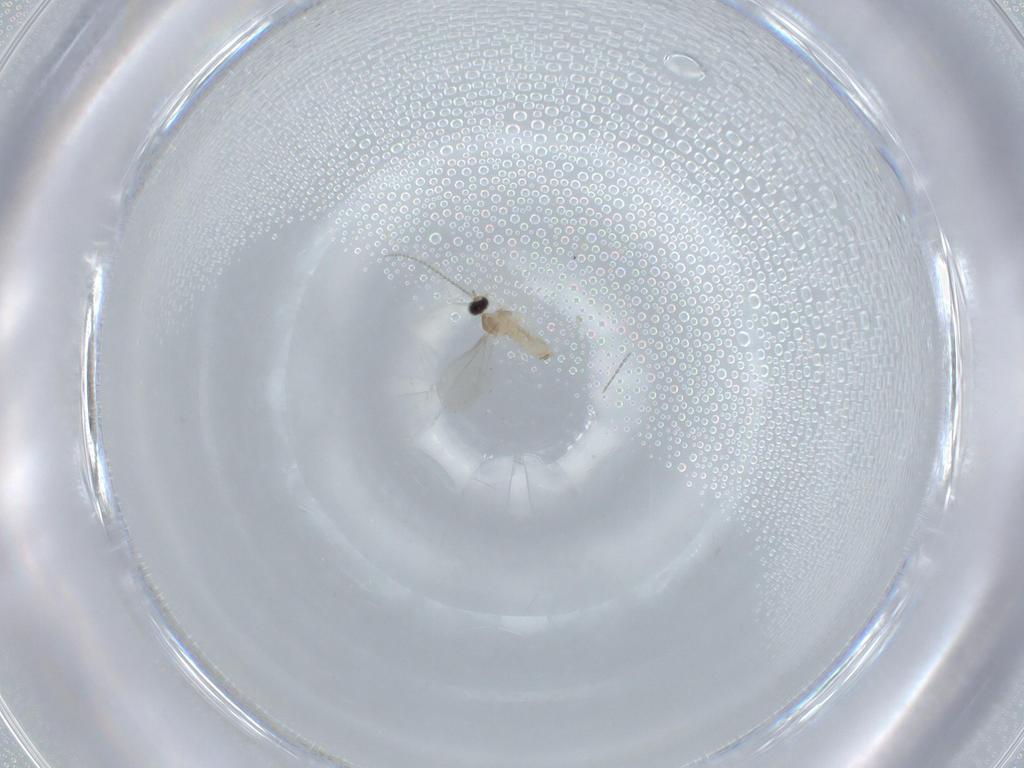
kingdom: Animalia
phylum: Arthropoda
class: Insecta
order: Diptera
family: Cecidomyiidae
